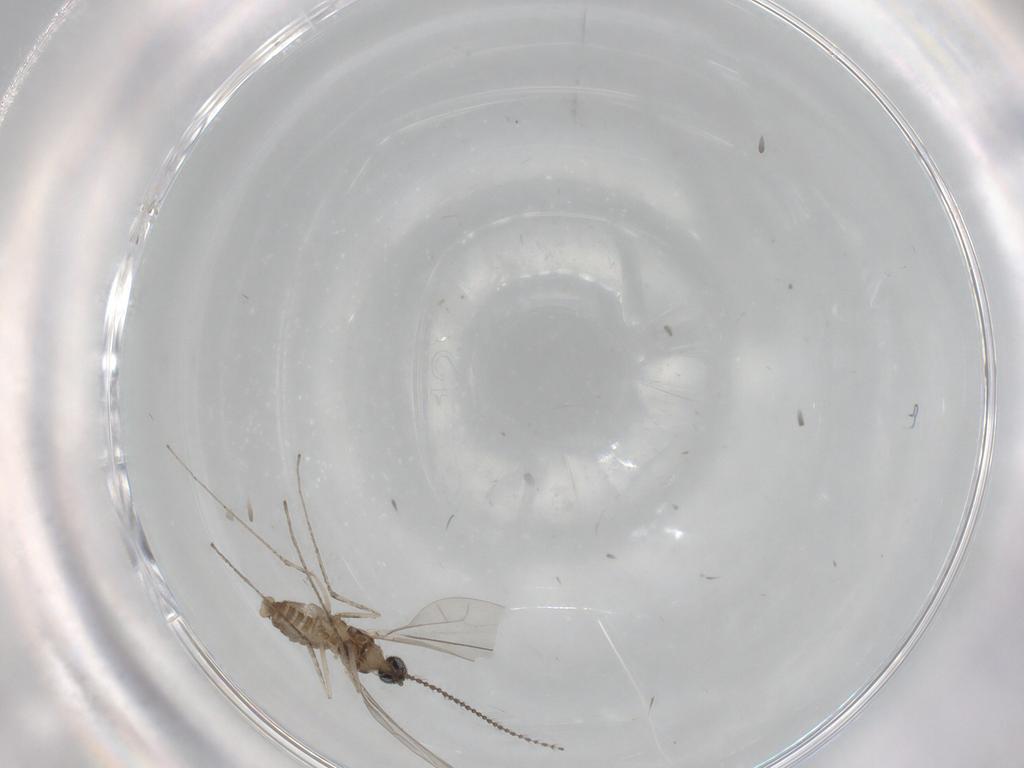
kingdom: Animalia
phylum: Arthropoda
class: Insecta
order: Diptera
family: Cecidomyiidae
